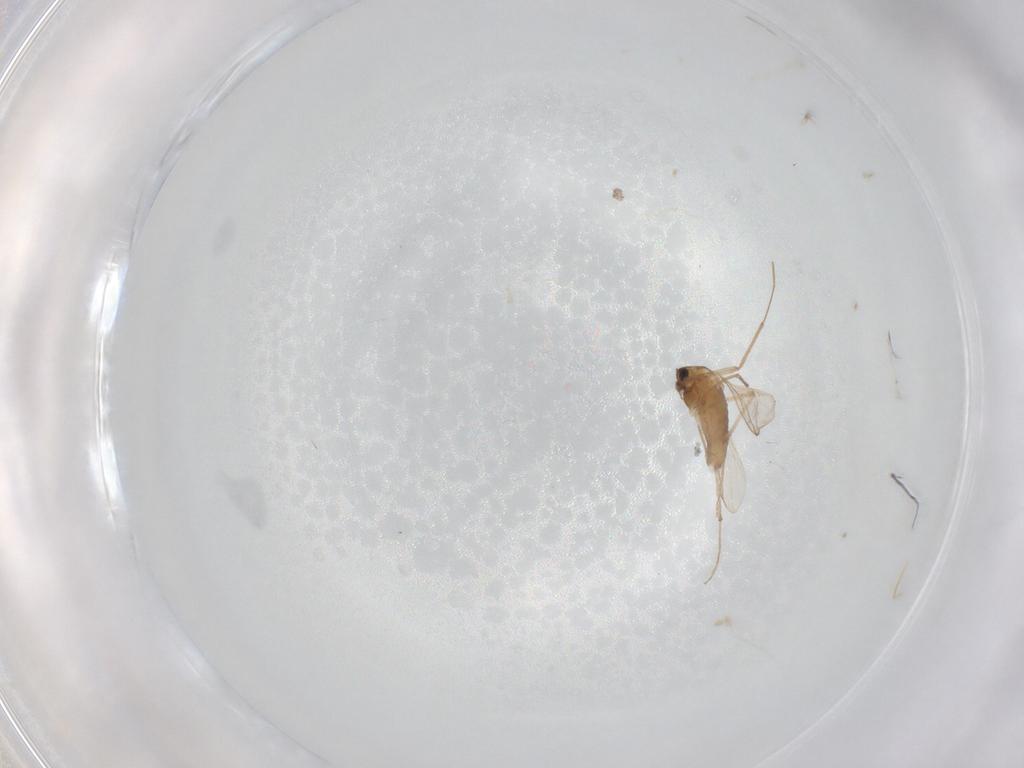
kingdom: Animalia
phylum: Arthropoda
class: Insecta
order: Diptera
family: Chironomidae
